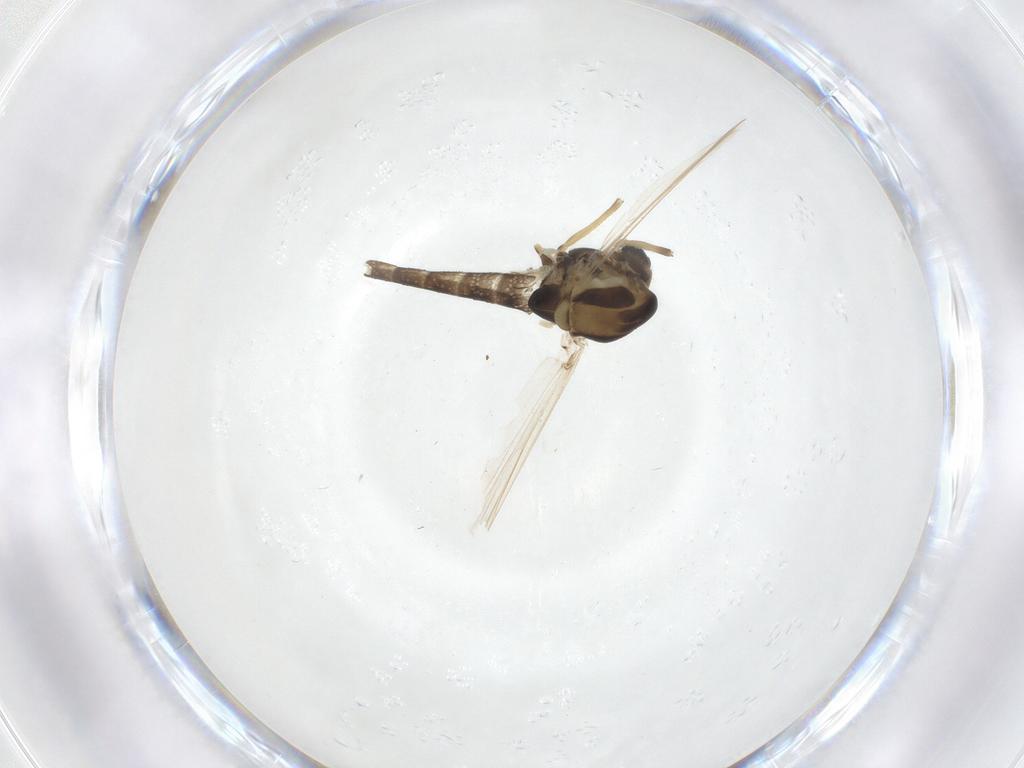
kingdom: Animalia
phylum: Arthropoda
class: Insecta
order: Diptera
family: Chironomidae
